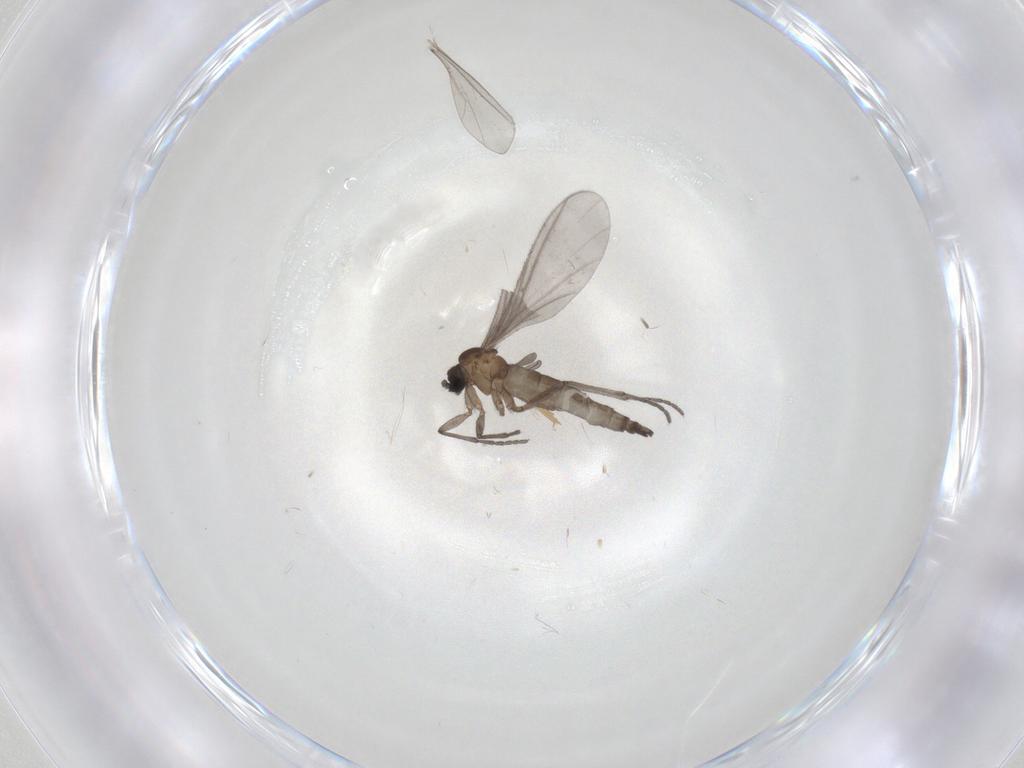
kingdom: Animalia
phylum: Arthropoda
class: Insecta
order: Diptera
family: Sciaridae
